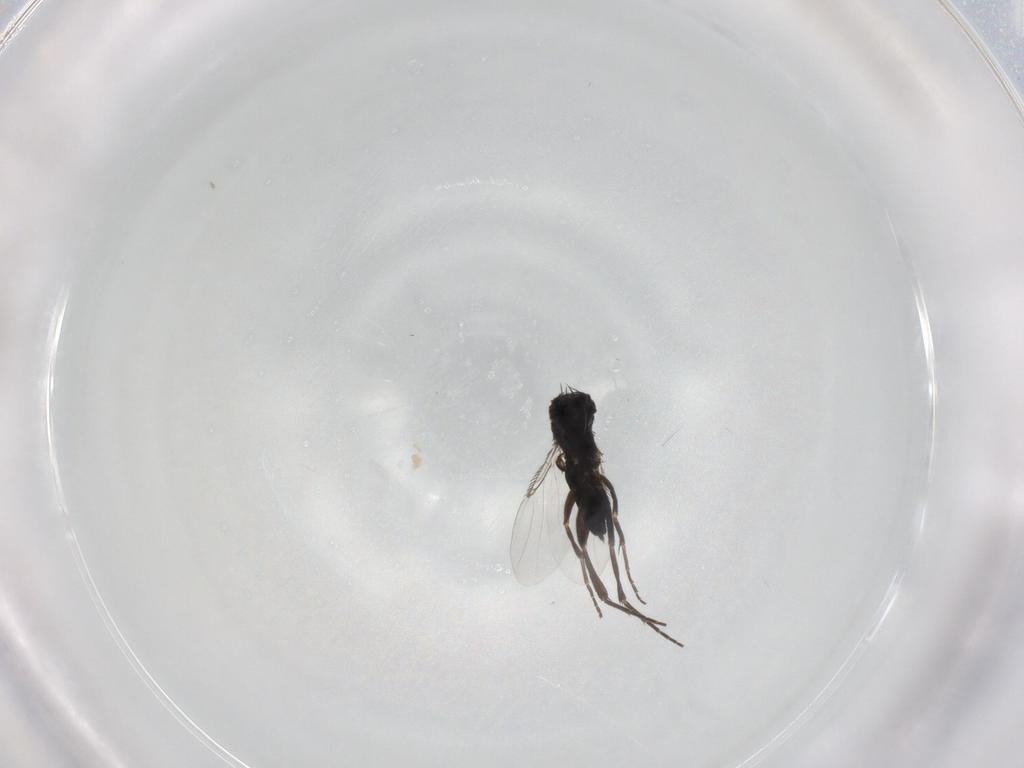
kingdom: Animalia
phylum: Arthropoda
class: Insecta
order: Diptera
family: Phoridae
